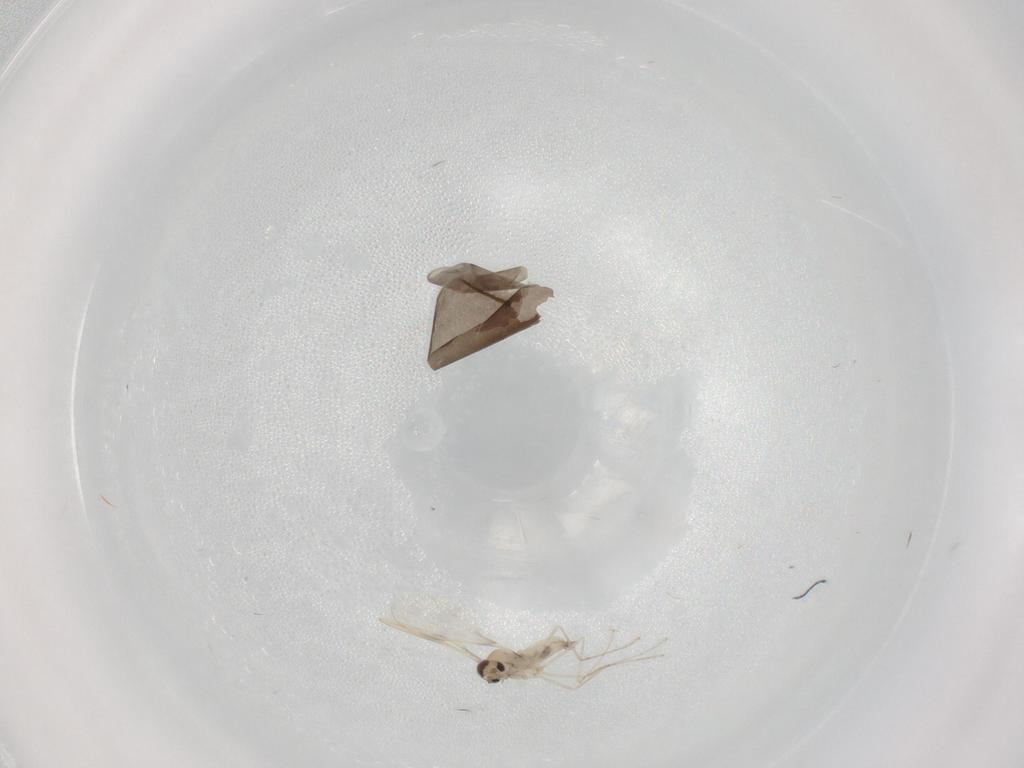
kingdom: Animalia
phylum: Arthropoda
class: Insecta
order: Diptera
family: Cecidomyiidae
